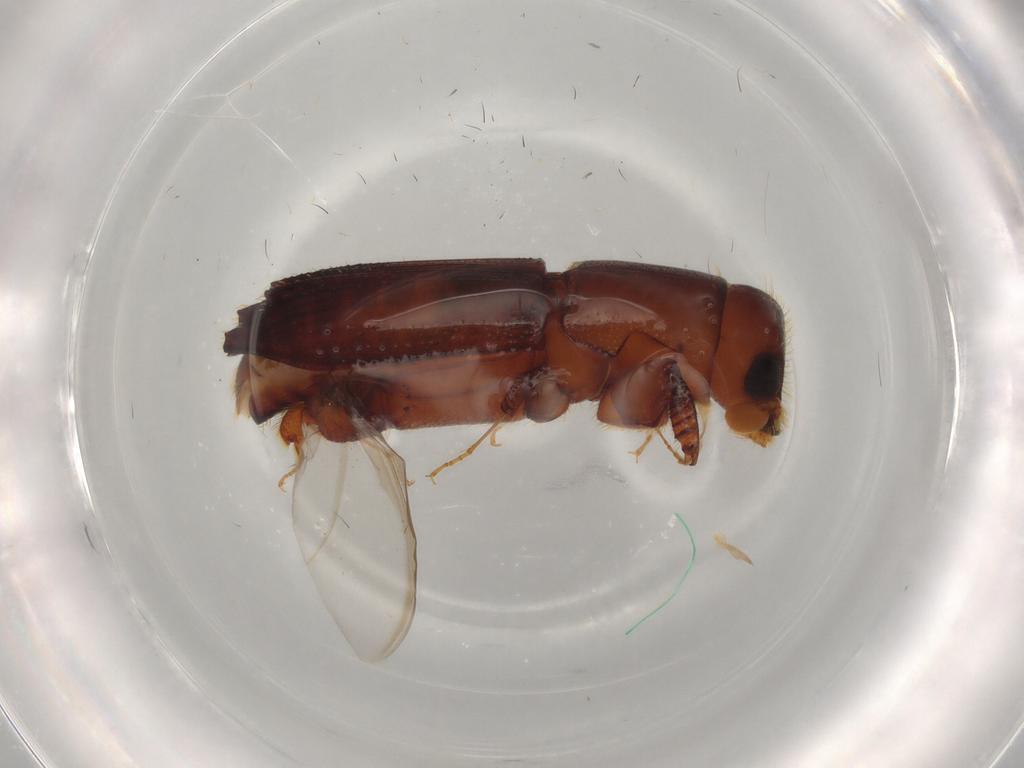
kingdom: Animalia
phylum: Arthropoda
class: Insecta
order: Coleoptera
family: Curculionidae
